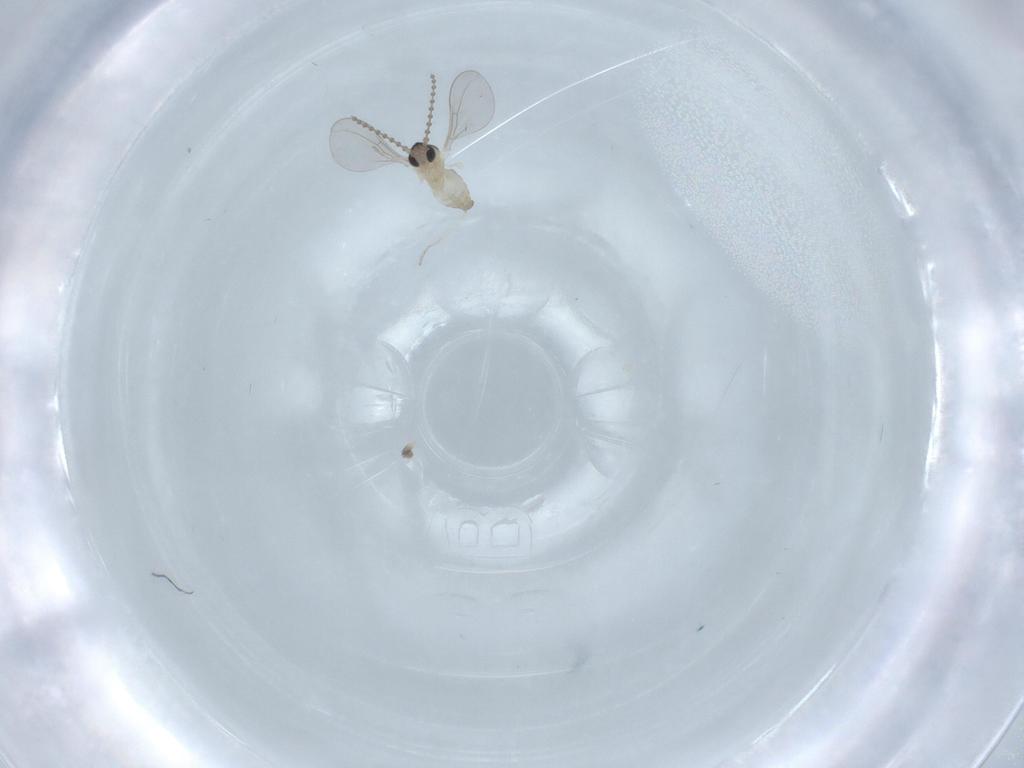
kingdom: Animalia
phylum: Arthropoda
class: Insecta
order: Diptera
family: Cecidomyiidae
